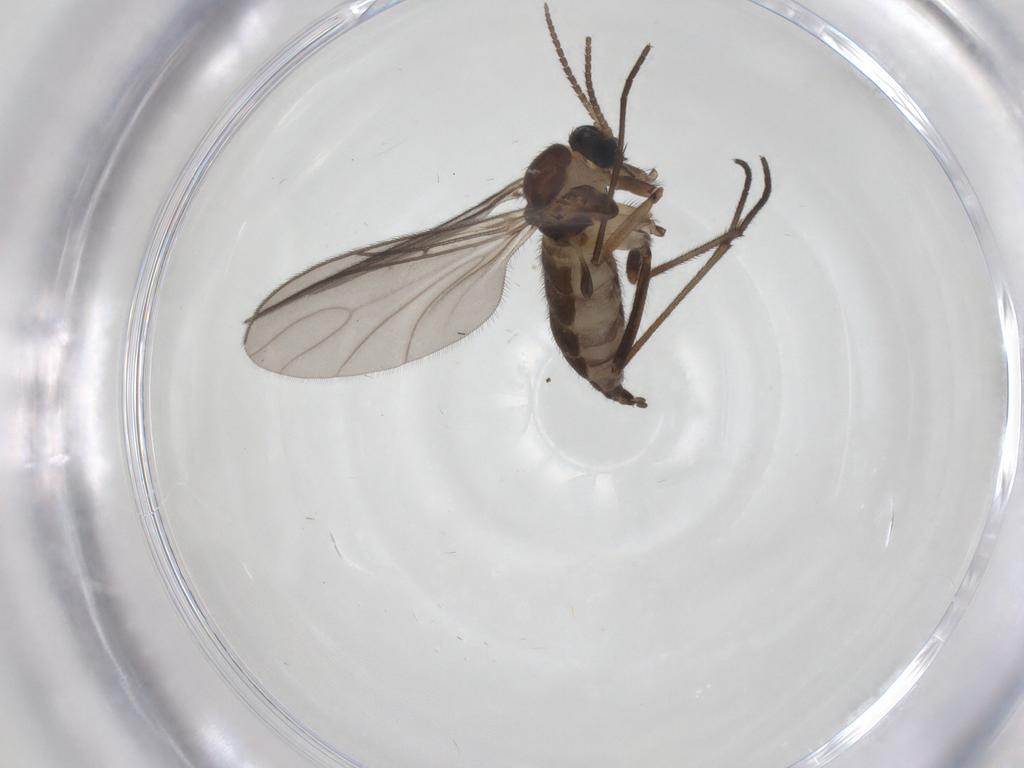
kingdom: Animalia
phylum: Arthropoda
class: Insecta
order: Diptera
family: Sciaridae
